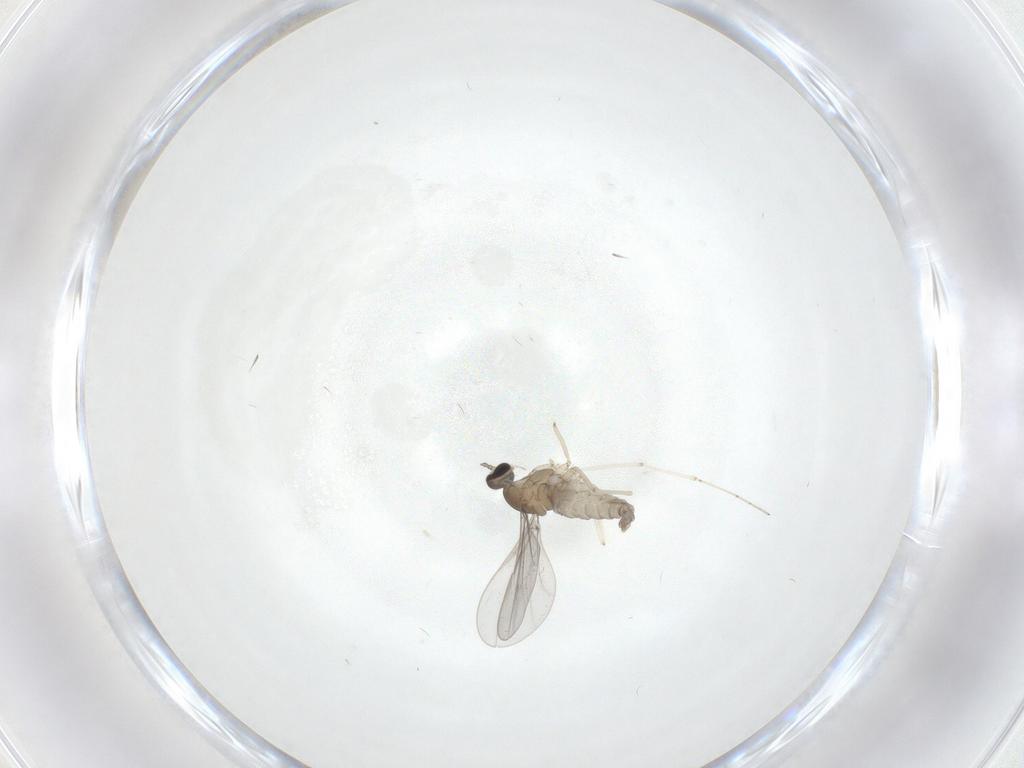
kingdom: Animalia
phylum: Arthropoda
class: Insecta
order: Diptera
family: Cecidomyiidae
